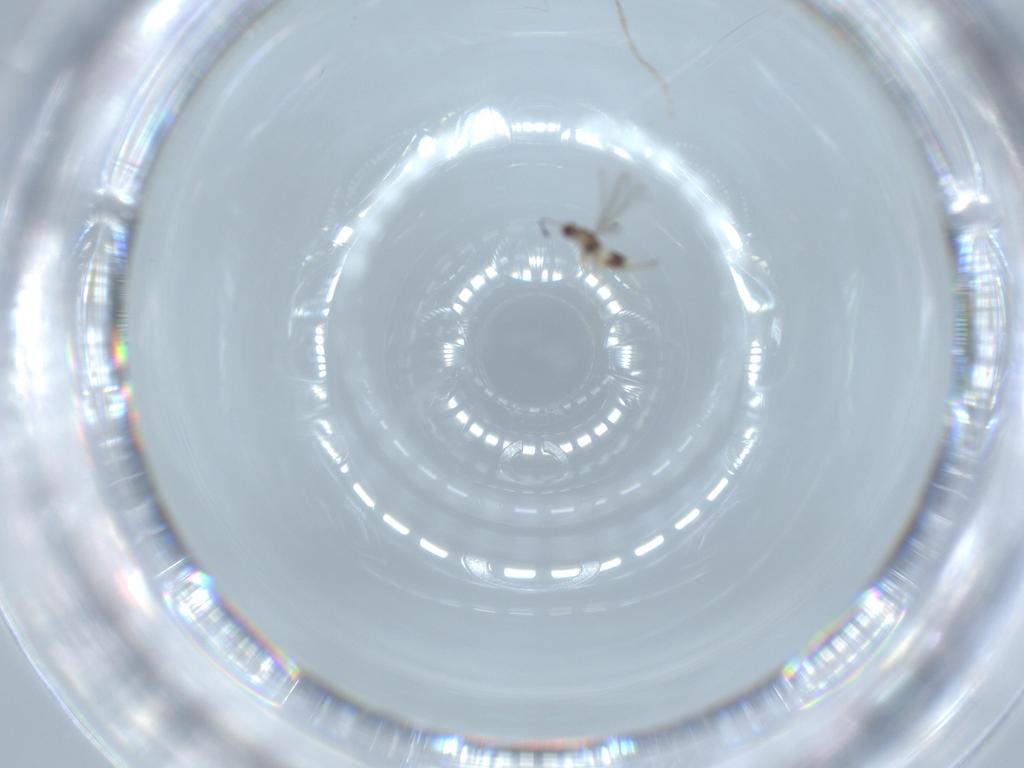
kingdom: Animalia
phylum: Arthropoda
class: Insecta
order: Hymenoptera
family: Mymaridae
